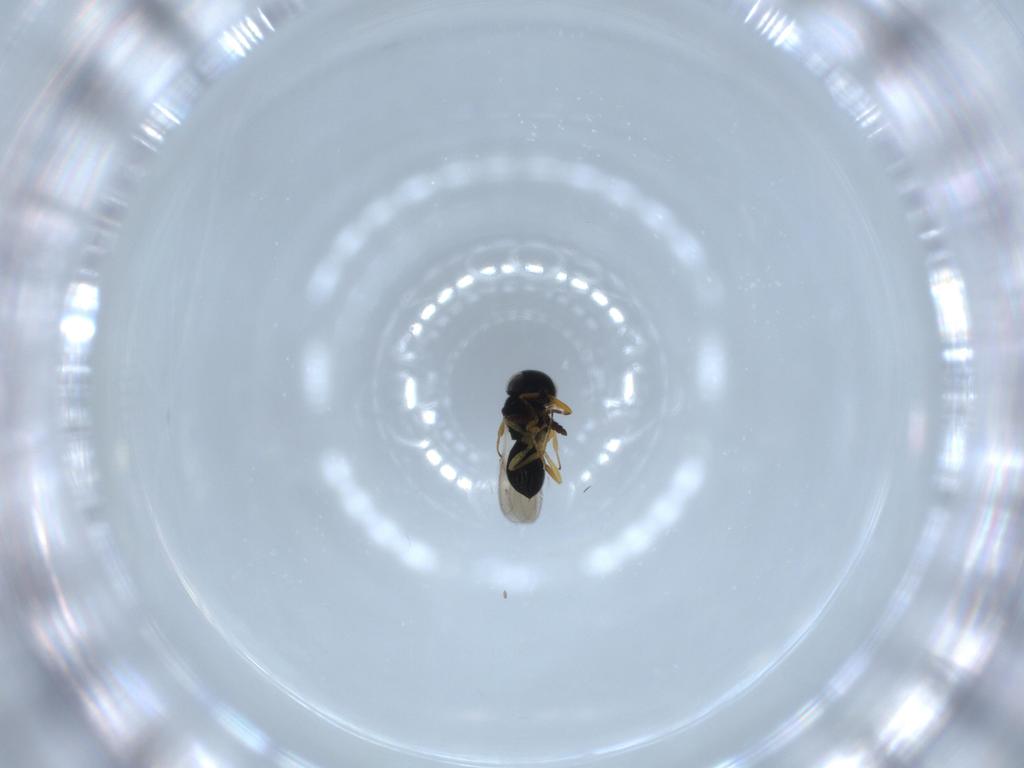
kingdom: Animalia
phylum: Arthropoda
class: Insecta
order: Hymenoptera
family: Scelionidae
